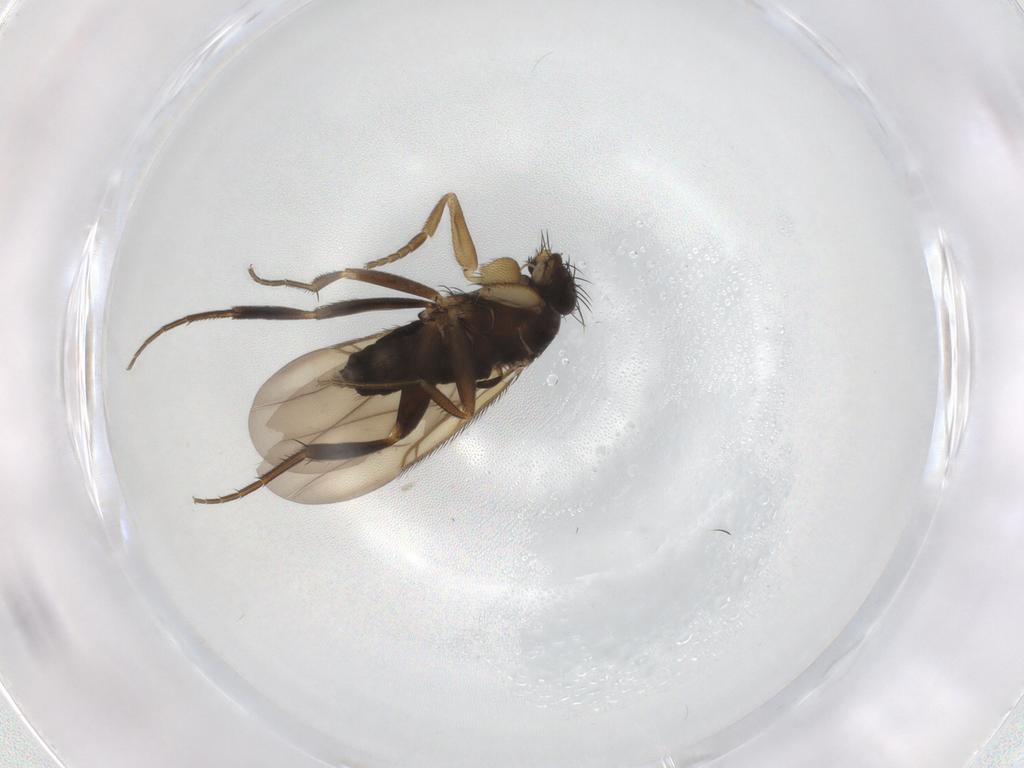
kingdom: Animalia
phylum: Arthropoda
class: Insecta
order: Diptera
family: Phoridae
